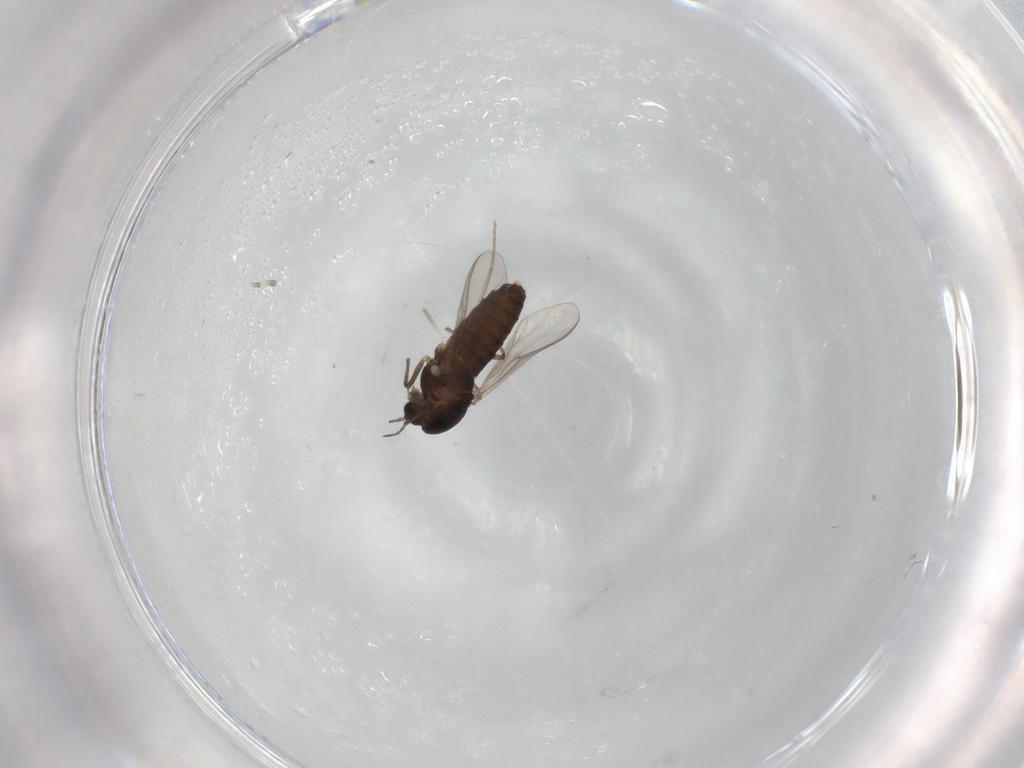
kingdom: Animalia
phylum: Arthropoda
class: Insecta
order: Diptera
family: Chironomidae
